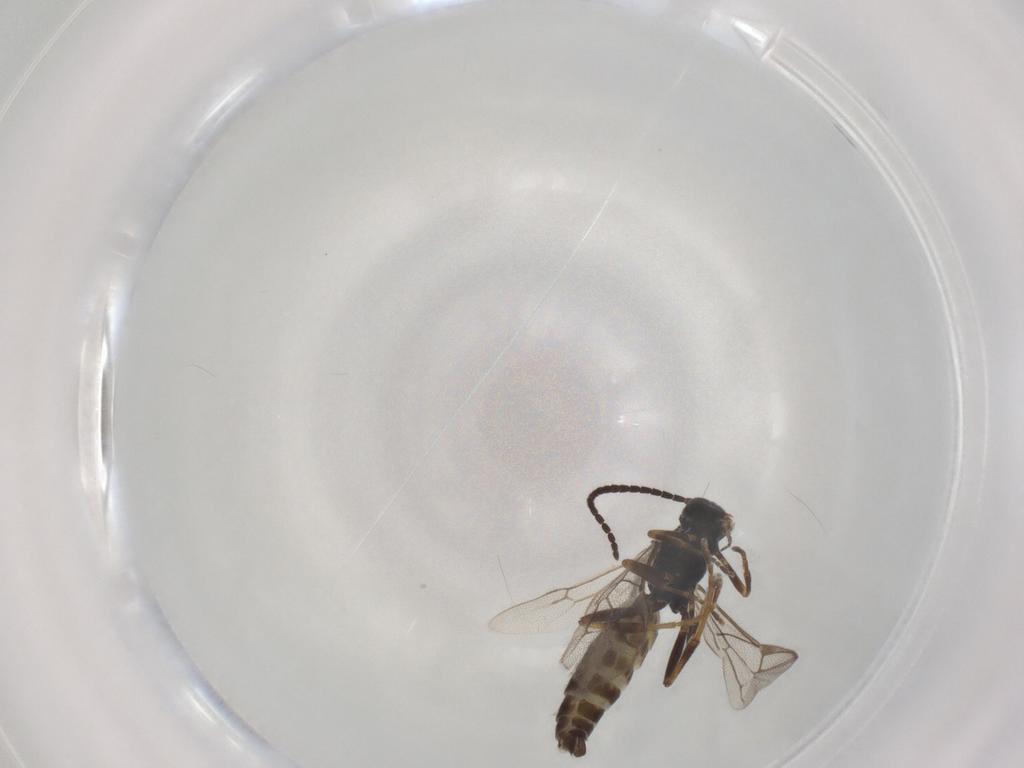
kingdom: Animalia
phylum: Arthropoda
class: Insecta
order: Hymenoptera
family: Ichneumonidae
